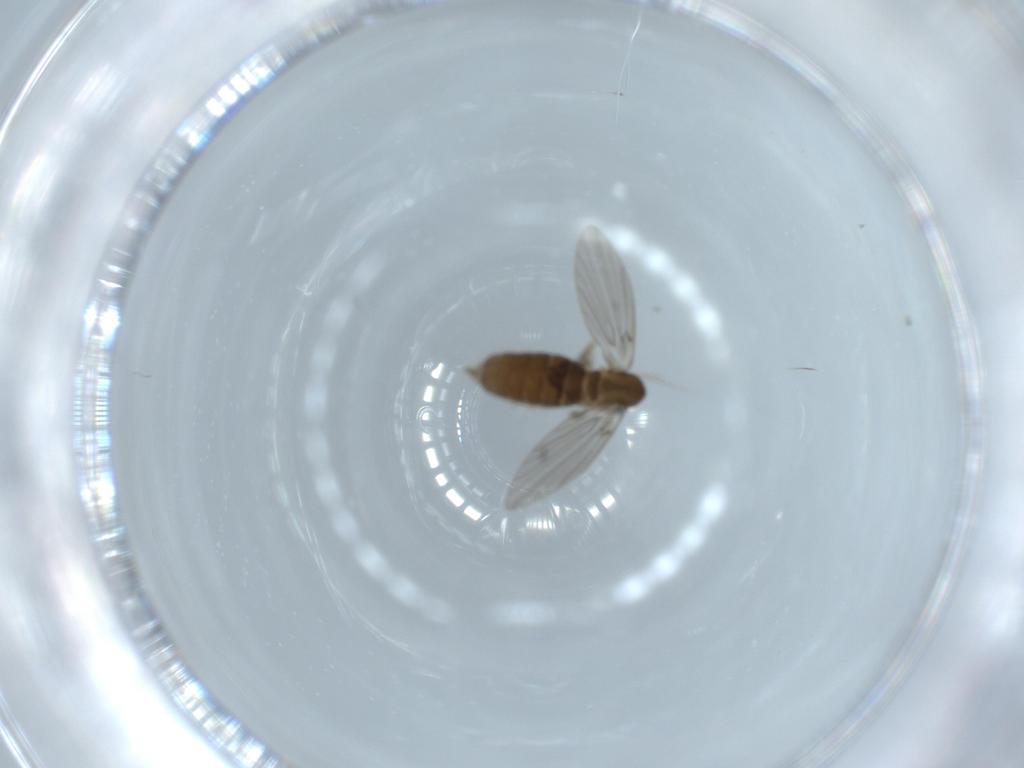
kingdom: Animalia
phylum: Arthropoda
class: Insecta
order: Diptera
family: Psychodidae
